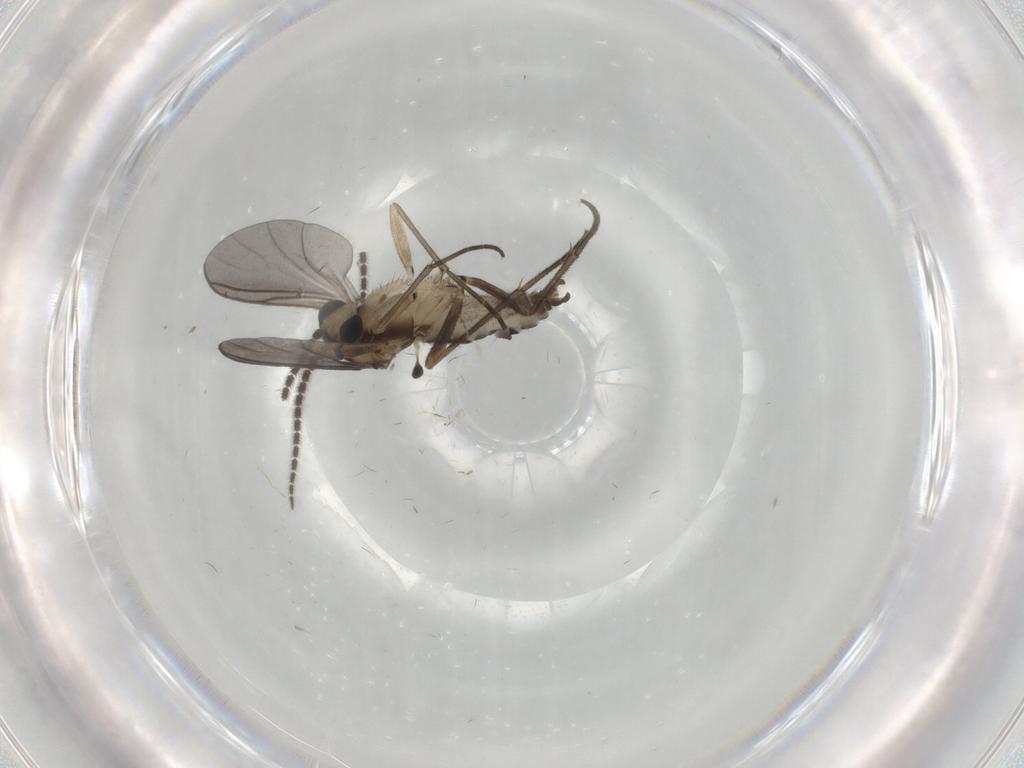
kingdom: Animalia
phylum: Arthropoda
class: Insecta
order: Diptera
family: Sciaridae
